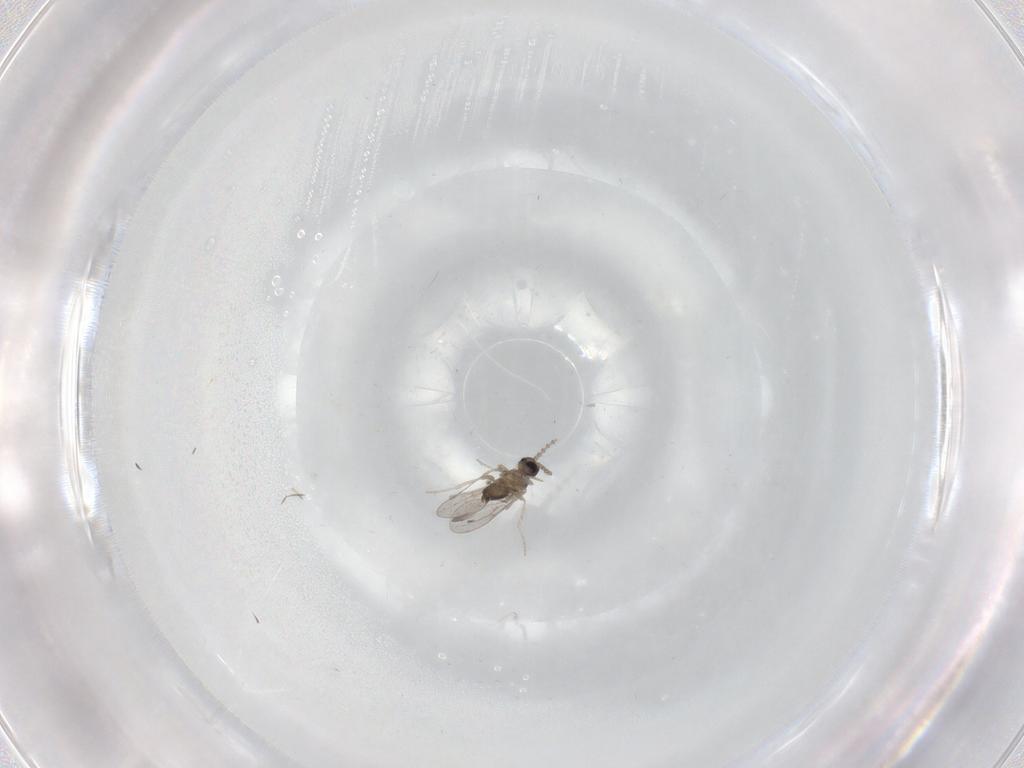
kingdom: Animalia
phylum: Arthropoda
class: Insecta
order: Diptera
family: Cecidomyiidae
